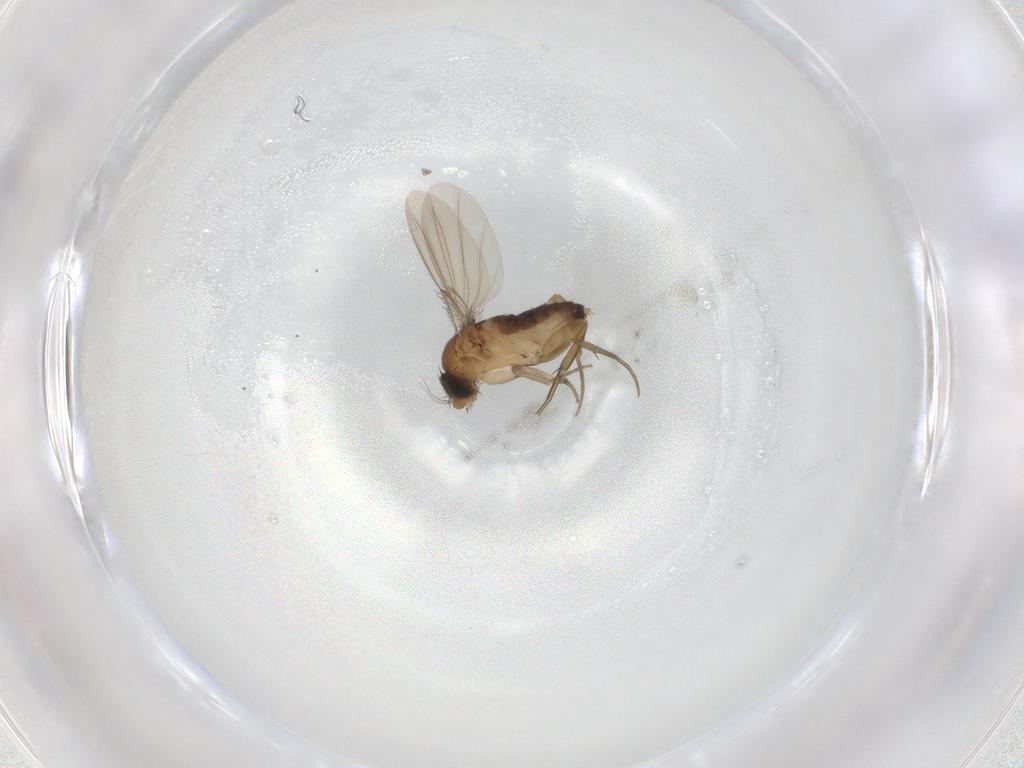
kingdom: Animalia
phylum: Arthropoda
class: Insecta
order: Diptera
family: Phoridae
